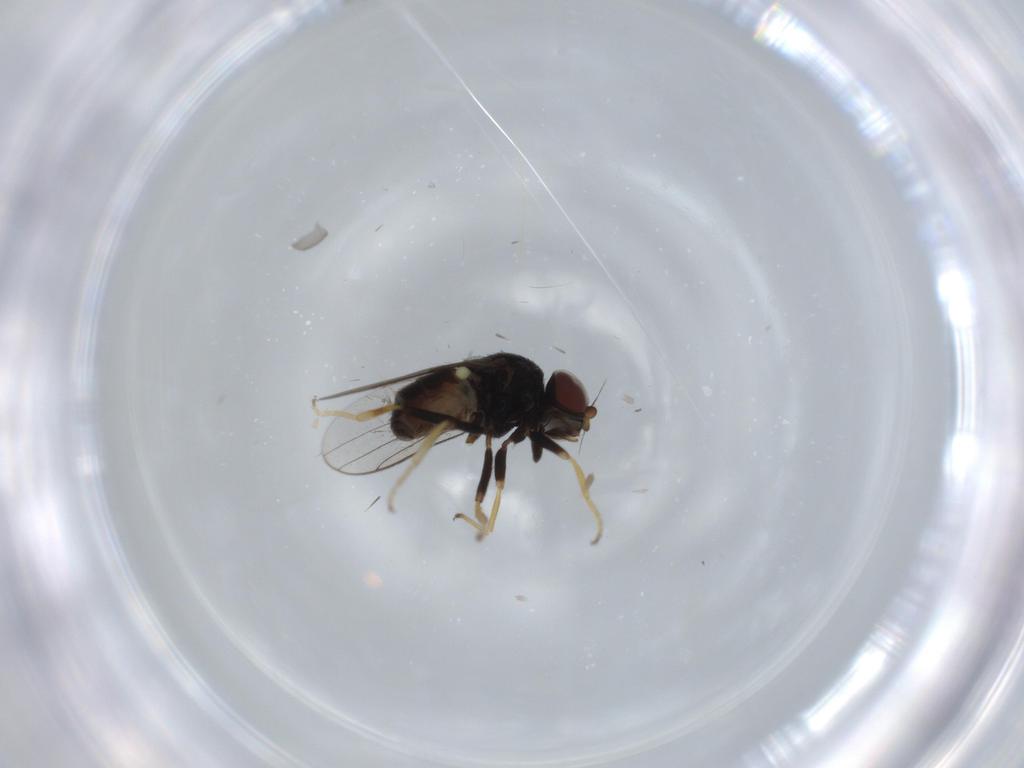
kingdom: Animalia
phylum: Arthropoda
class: Insecta
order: Diptera
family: Chloropidae
